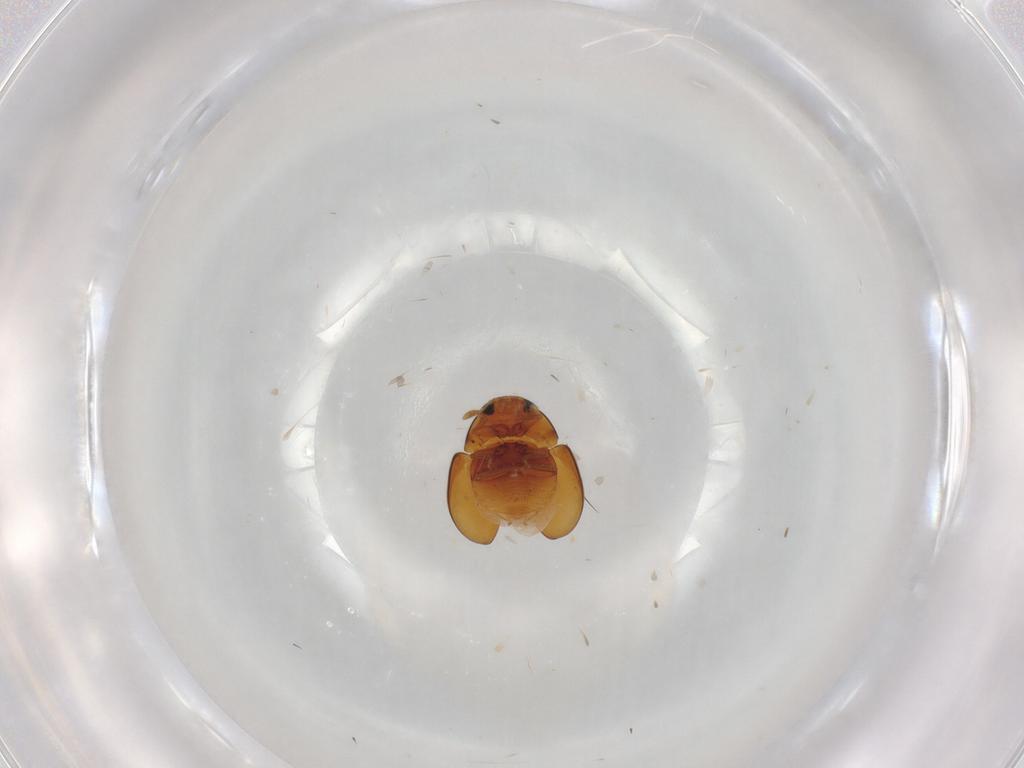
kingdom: Animalia
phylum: Arthropoda
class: Insecta
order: Coleoptera
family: Phalacridae
